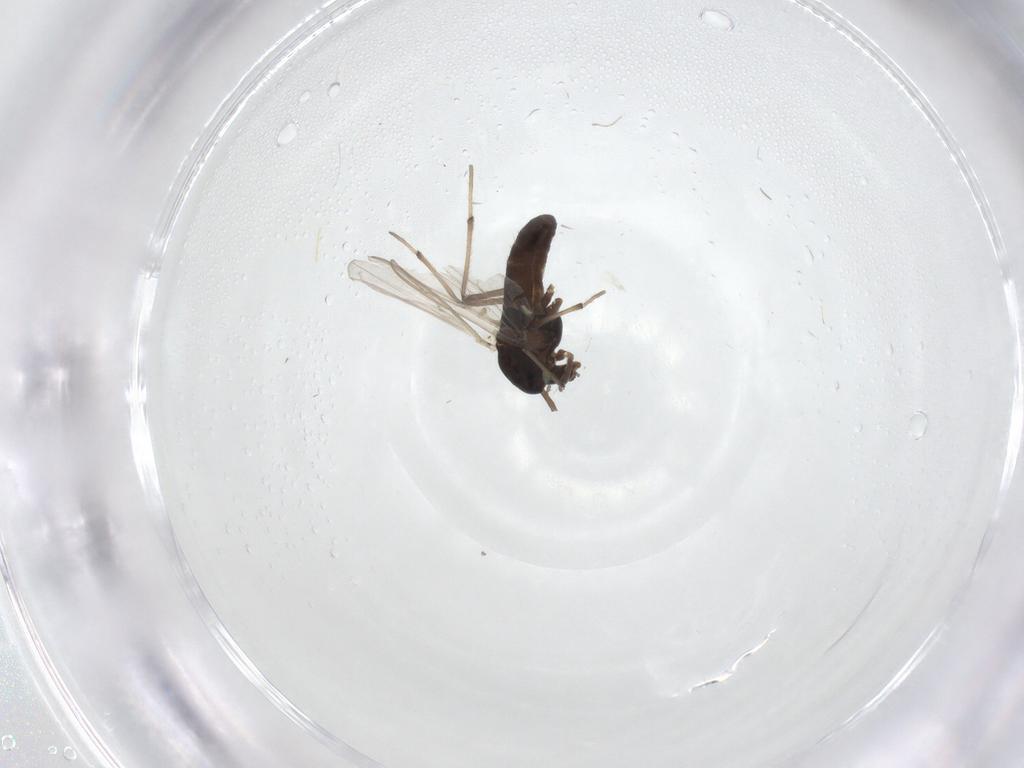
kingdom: Animalia
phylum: Arthropoda
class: Insecta
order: Diptera
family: Chironomidae
